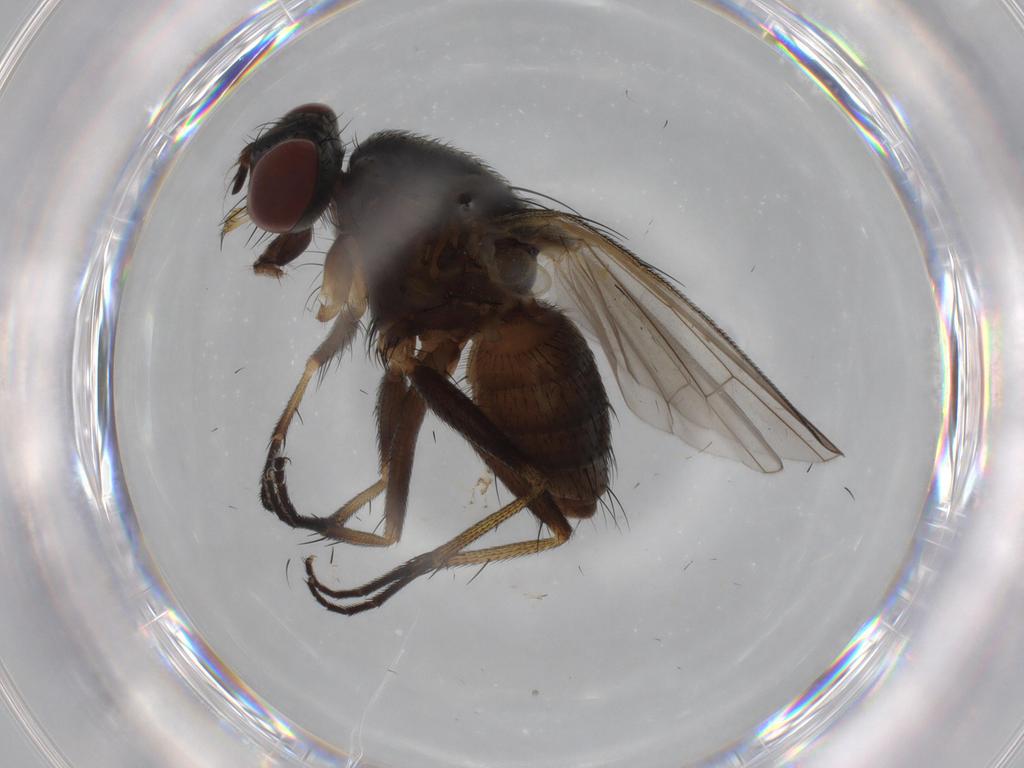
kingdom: Animalia
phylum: Arthropoda
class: Insecta
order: Diptera
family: Muscidae
